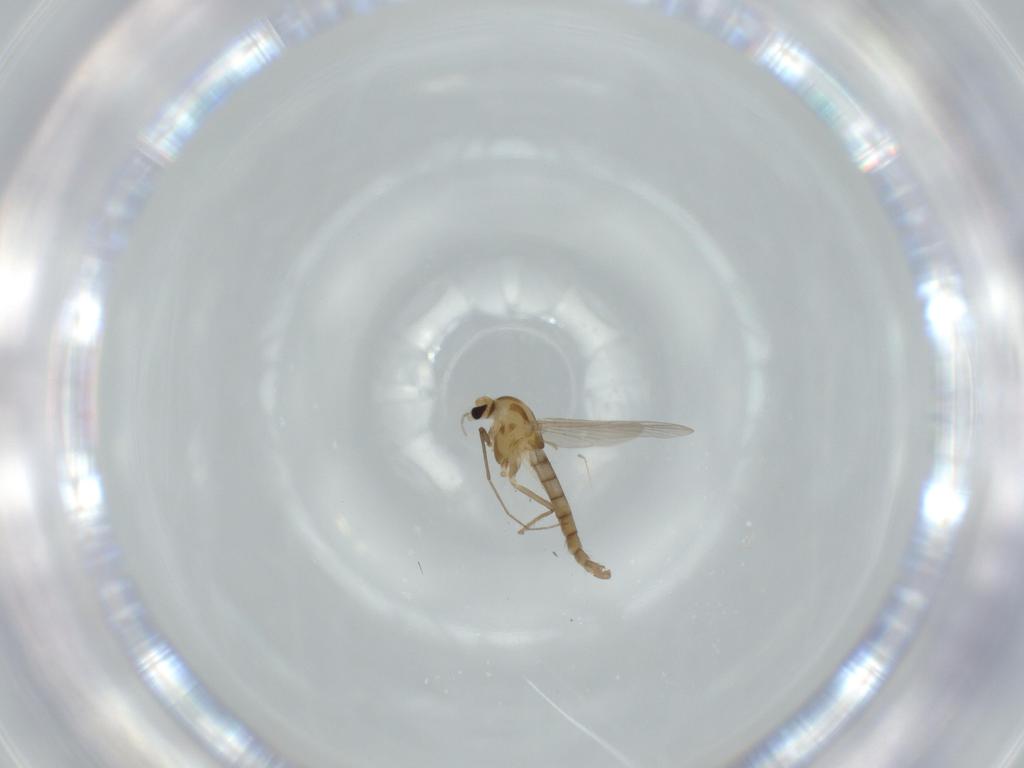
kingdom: Animalia
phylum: Arthropoda
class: Insecta
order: Diptera
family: Chironomidae
